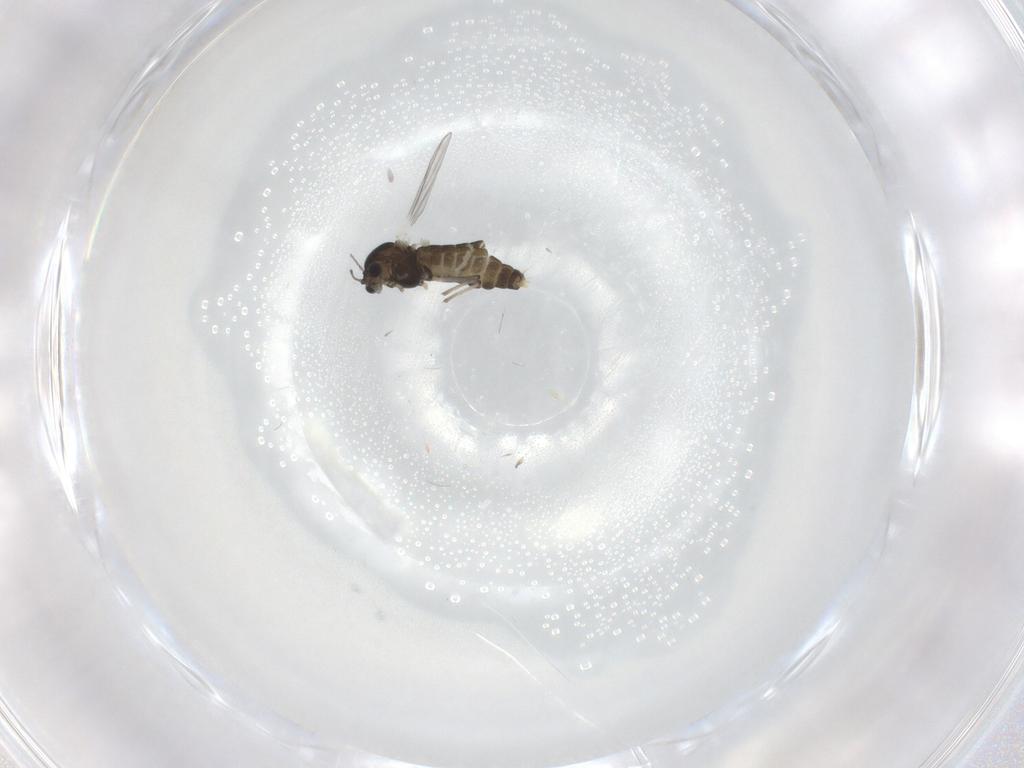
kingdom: Animalia
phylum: Arthropoda
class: Insecta
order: Diptera
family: Chironomidae
